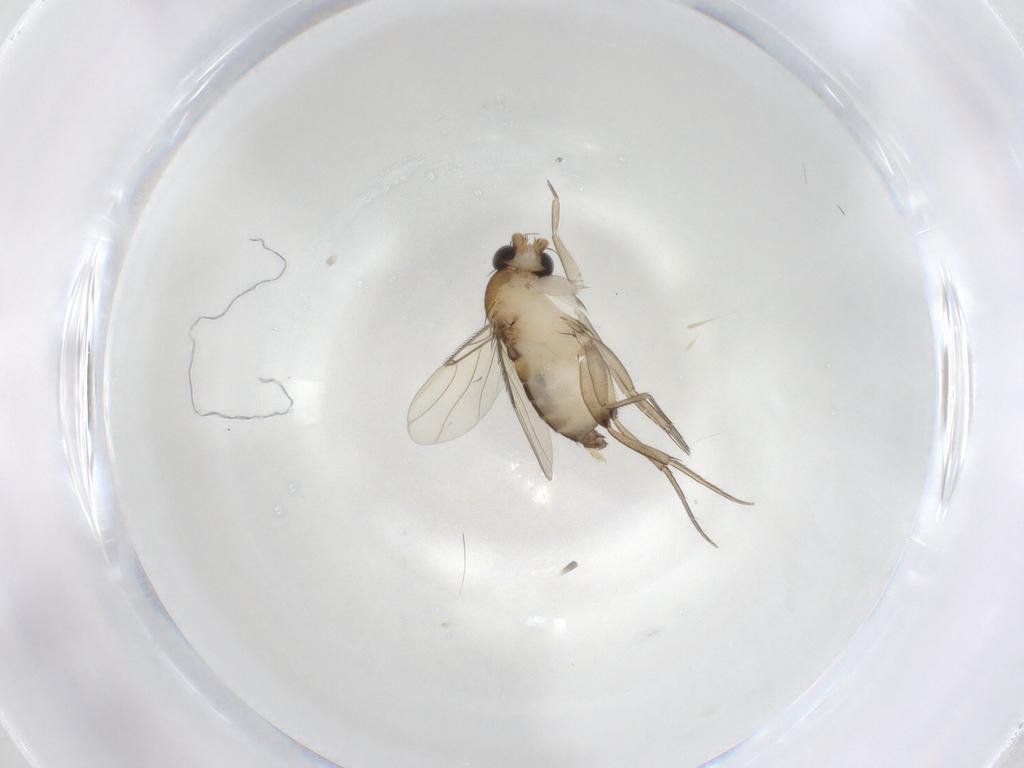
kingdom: Animalia
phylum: Arthropoda
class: Insecta
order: Diptera
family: Phoridae
